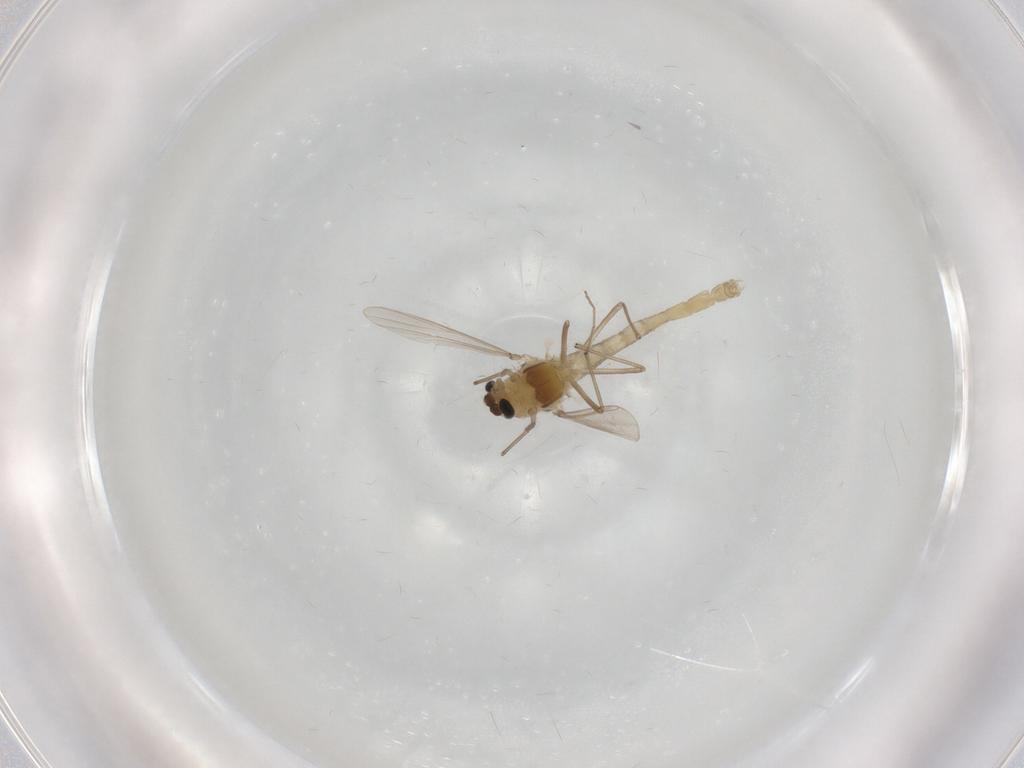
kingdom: Animalia
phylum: Arthropoda
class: Insecta
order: Diptera
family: Chironomidae
